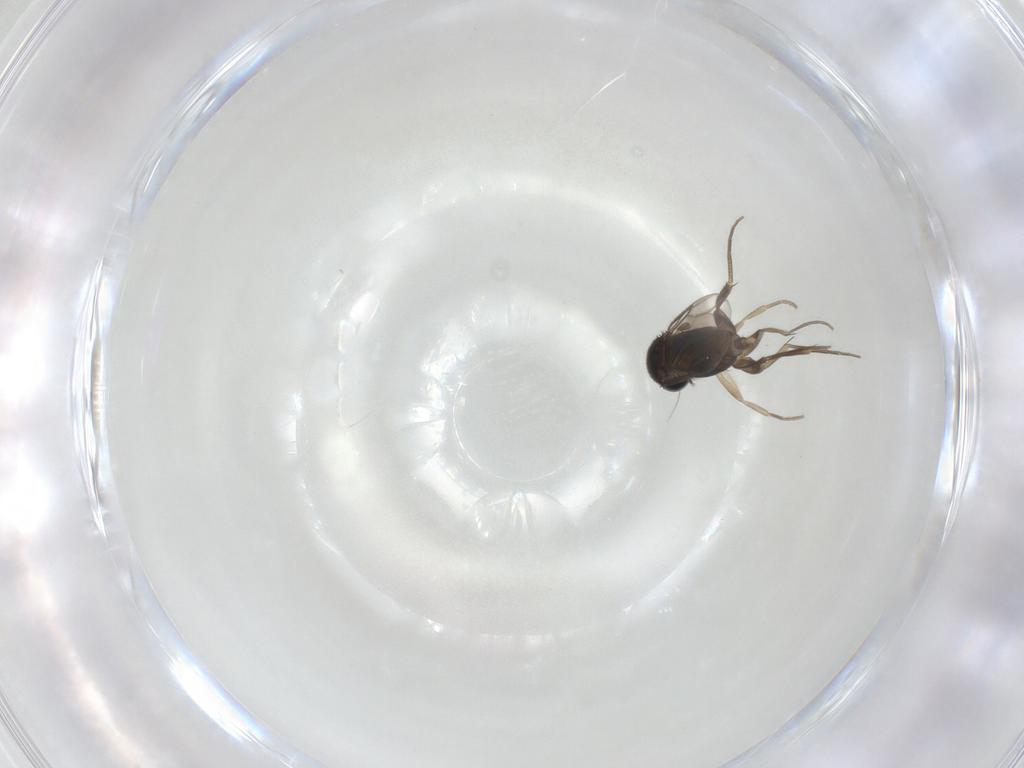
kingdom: Animalia
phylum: Arthropoda
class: Insecta
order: Diptera
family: Phoridae
